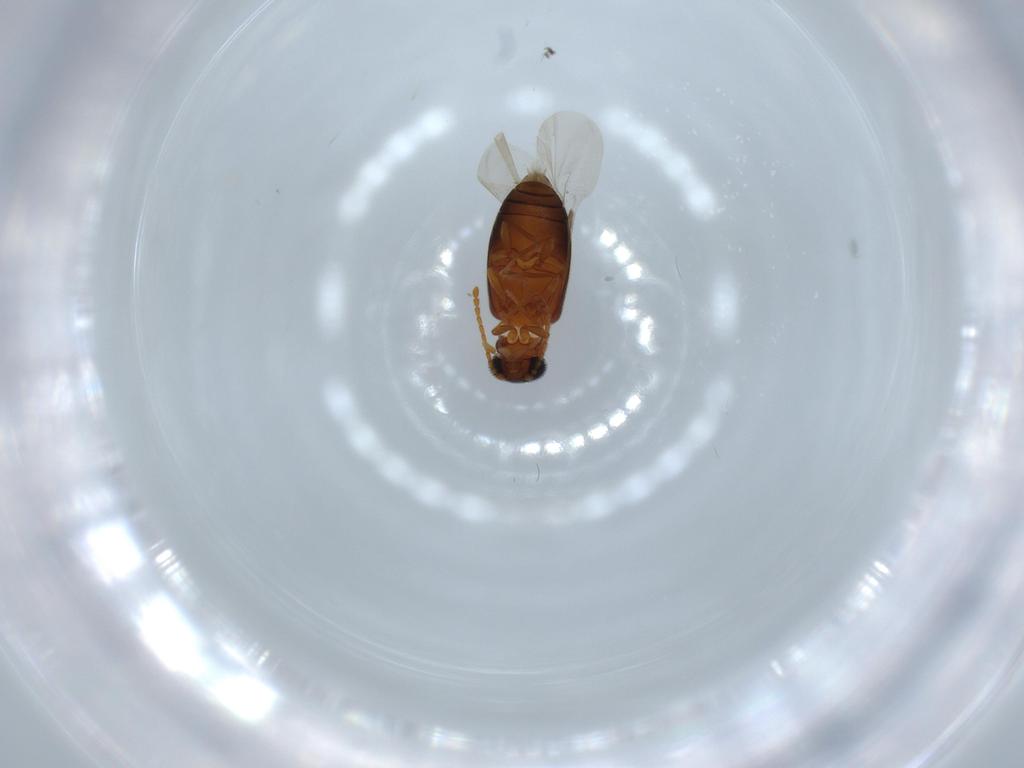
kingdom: Animalia
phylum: Arthropoda
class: Insecta
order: Coleoptera
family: Aderidae
